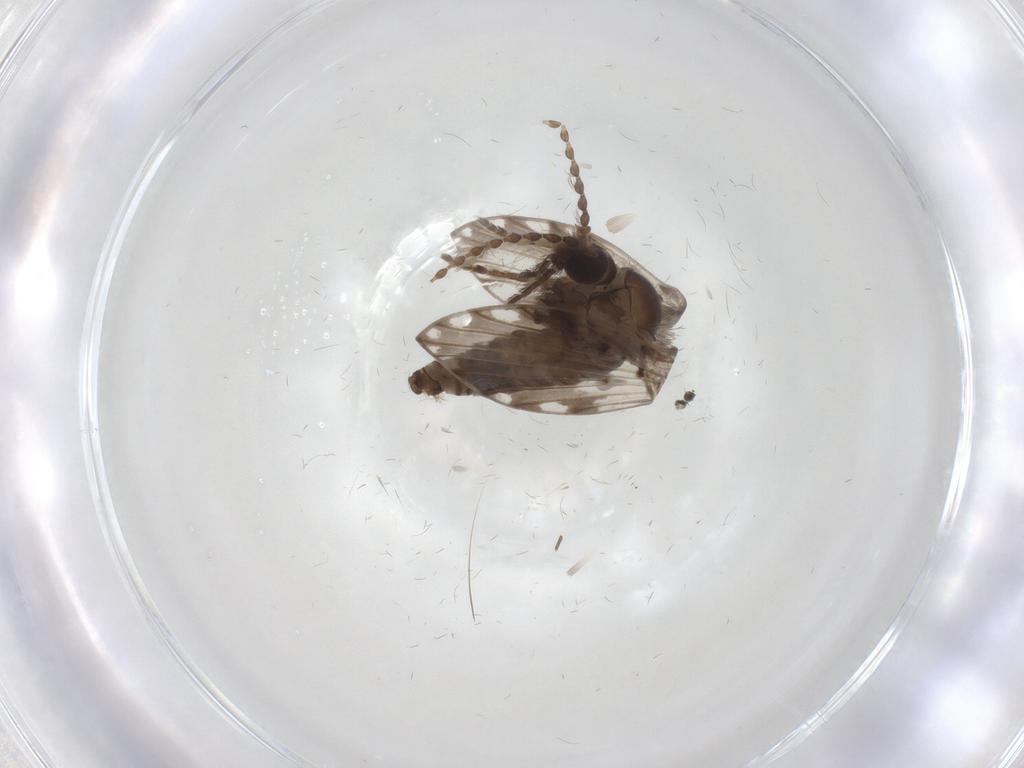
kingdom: Animalia
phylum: Arthropoda
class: Insecta
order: Diptera
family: Psychodidae
